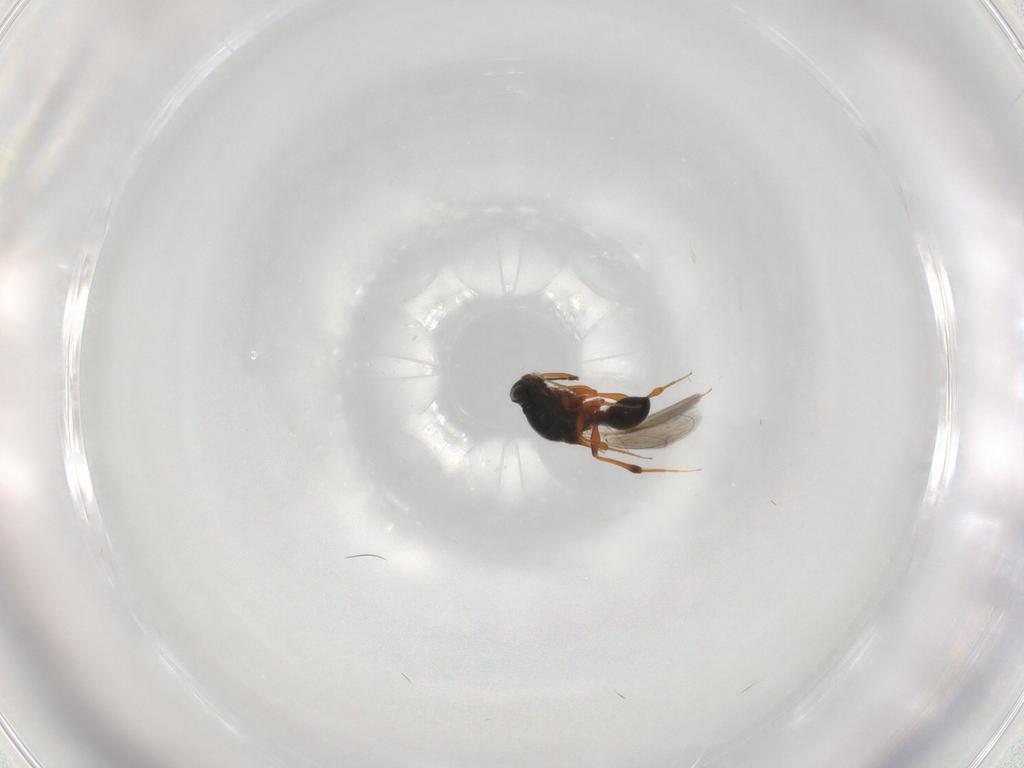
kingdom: Animalia
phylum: Arthropoda
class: Insecta
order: Hymenoptera
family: Platygastridae
